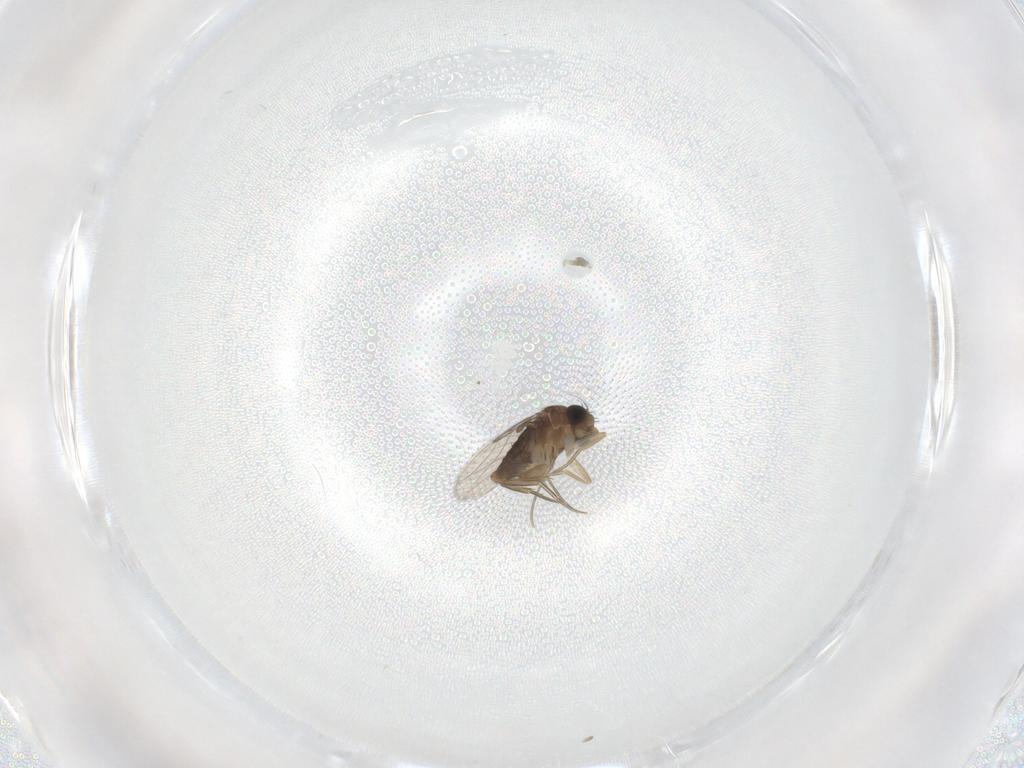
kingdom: Animalia
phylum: Arthropoda
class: Insecta
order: Diptera
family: Phoridae
